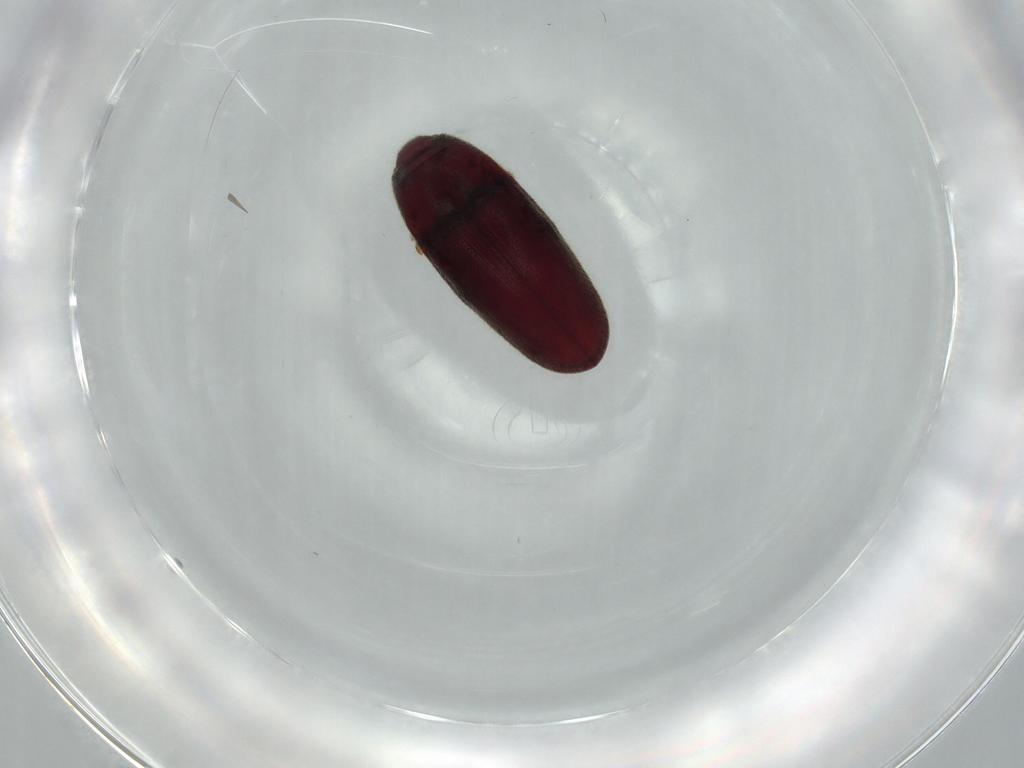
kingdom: Animalia
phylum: Arthropoda
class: Insecta
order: Coleoptera
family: Throscidae
